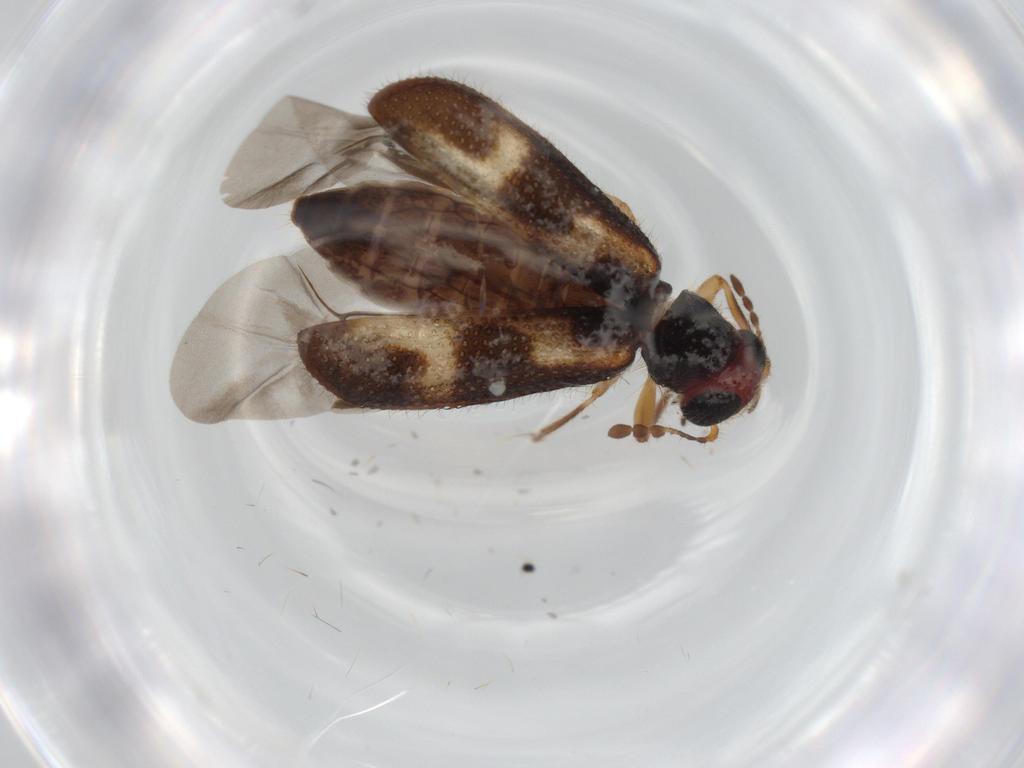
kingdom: Animalia
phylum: Arthropoda
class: Insecta
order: Coleoptera
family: Cleridae
